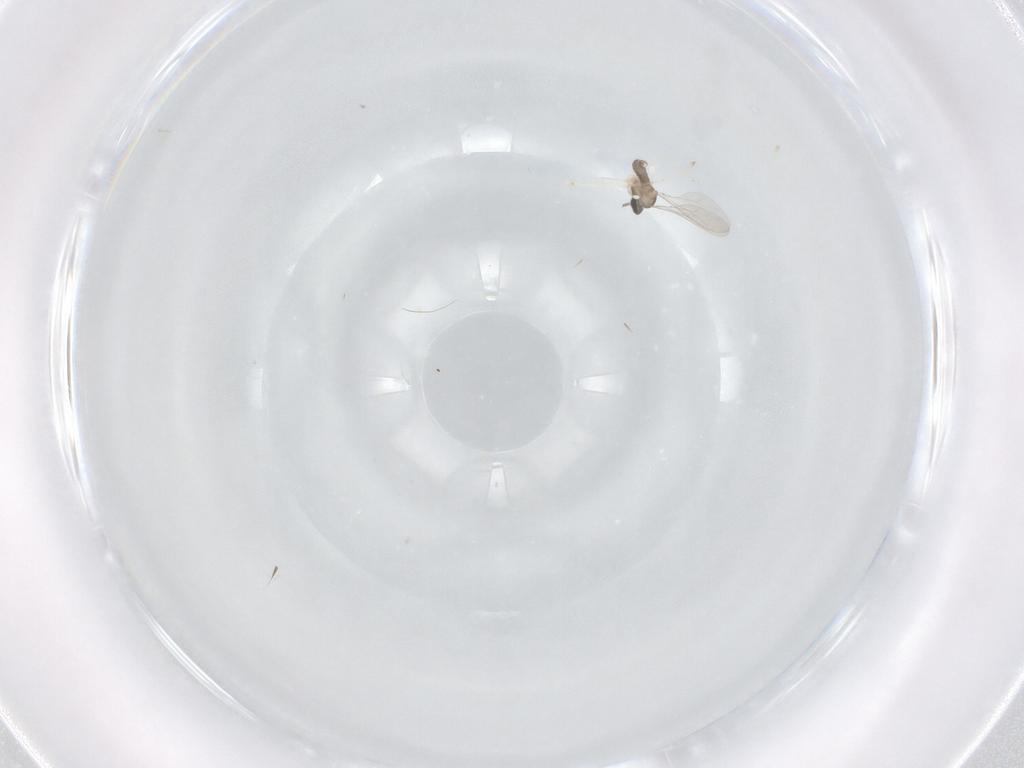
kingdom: Animalia
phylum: Arthropoda
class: Insecta
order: Diptera
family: Cecidomyiidae
